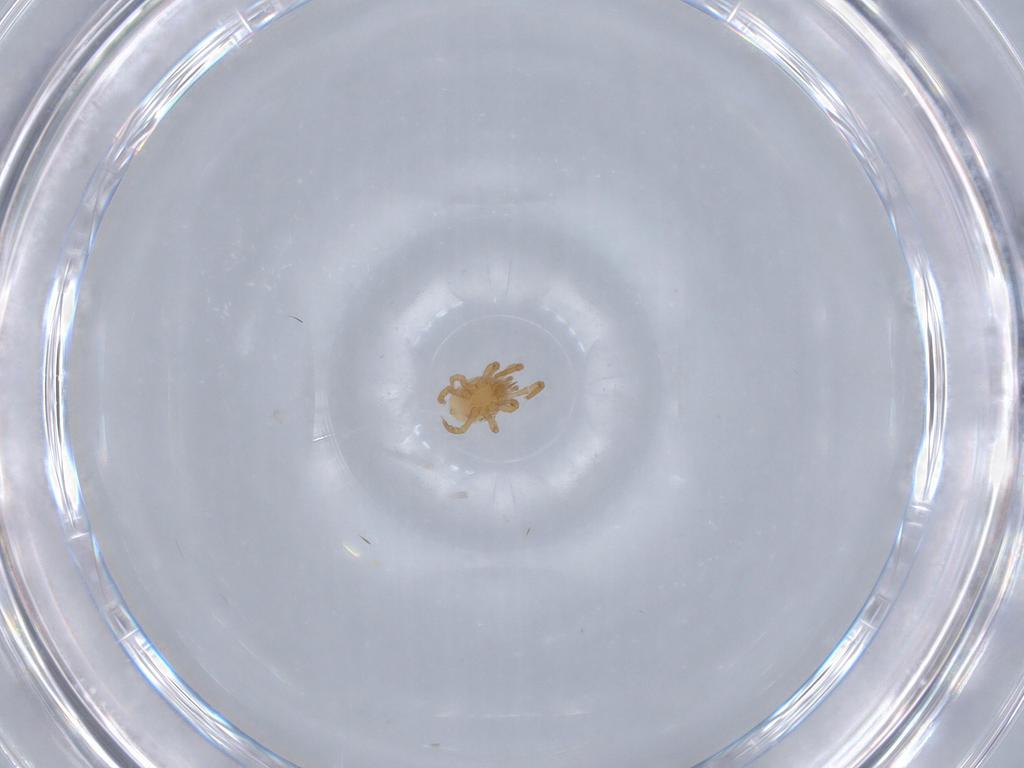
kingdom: Animalia
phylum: Arthropoda
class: Arachnida
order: Mesostigmata
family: Parasitidae
